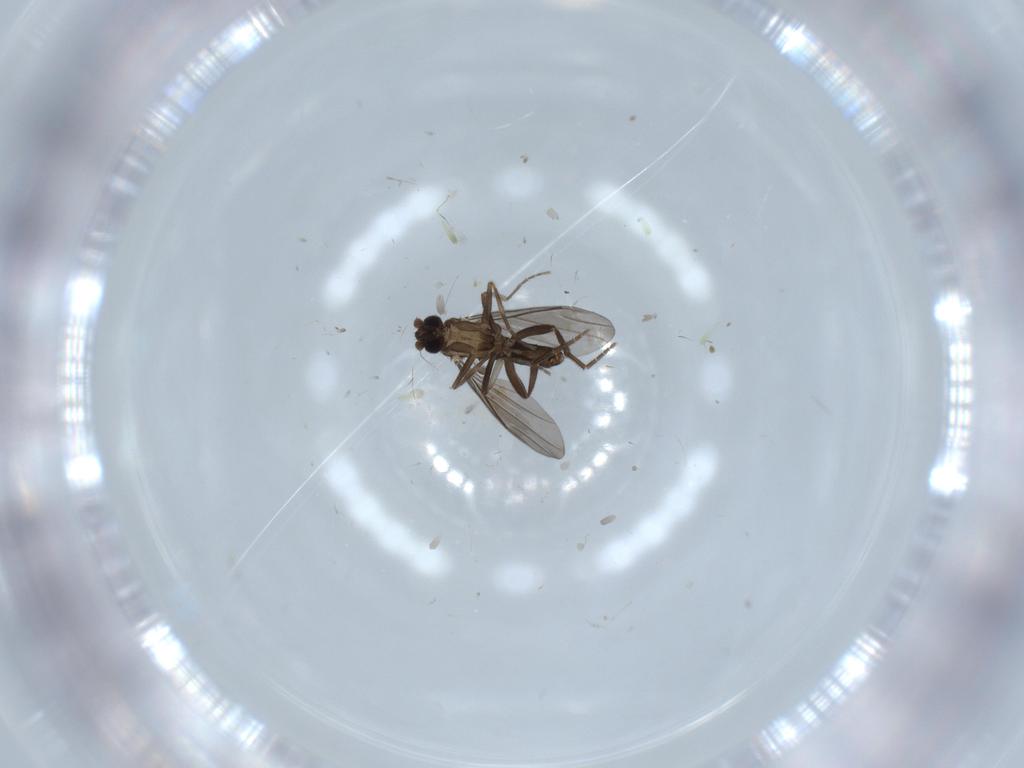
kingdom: Animalia
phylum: Arthropoda
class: Insecta
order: Diptera
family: Phoridae
